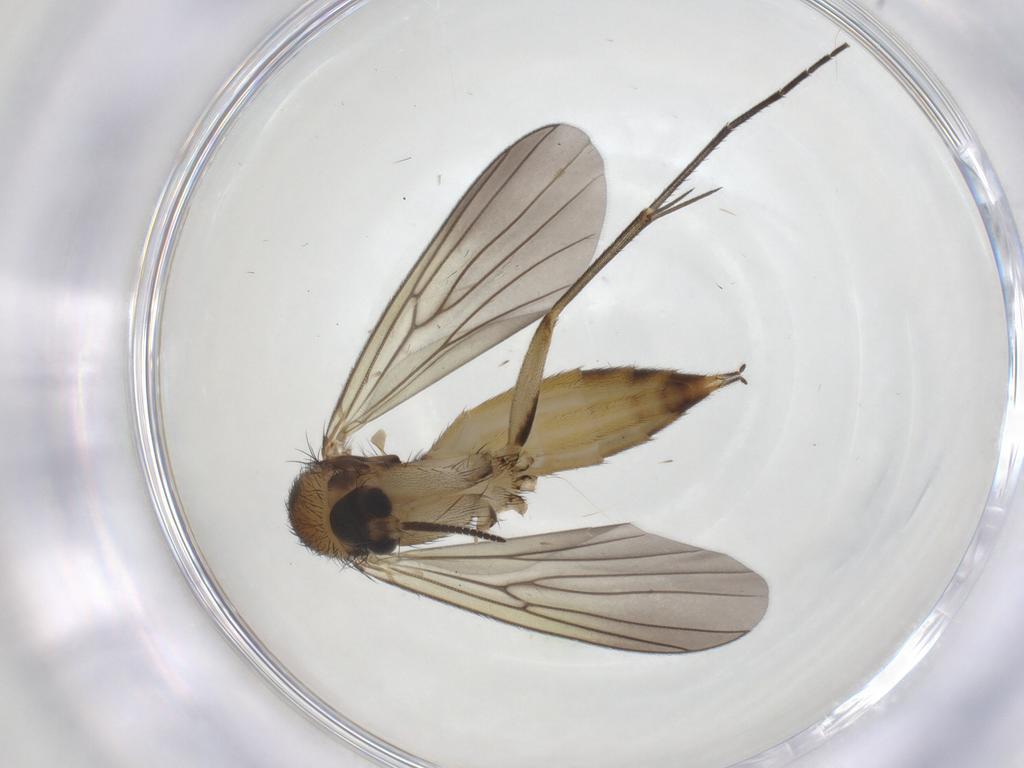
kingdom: Animalia
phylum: Arthropoda
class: Insecta
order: Diptera
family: Mycetophilidae
